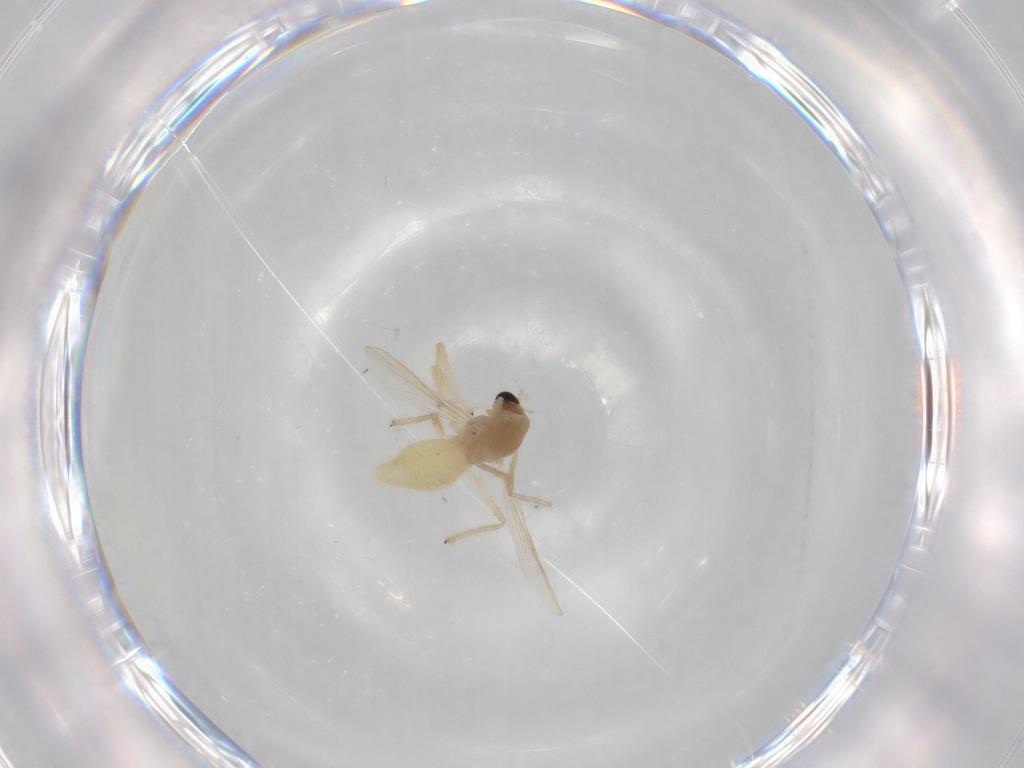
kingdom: Animalia
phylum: Arthropoda
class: Insecta
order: Diptera
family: Chironomidae
